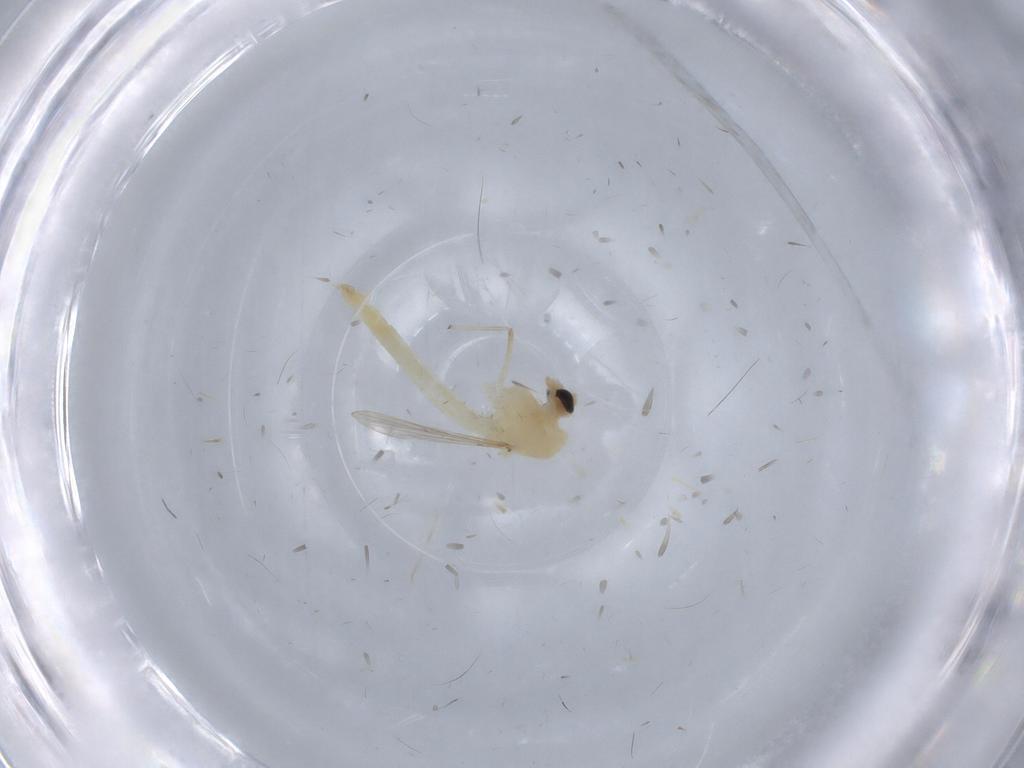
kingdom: Animalia
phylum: Arthropoda
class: Insecta
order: Diptera
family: Chironomidae
